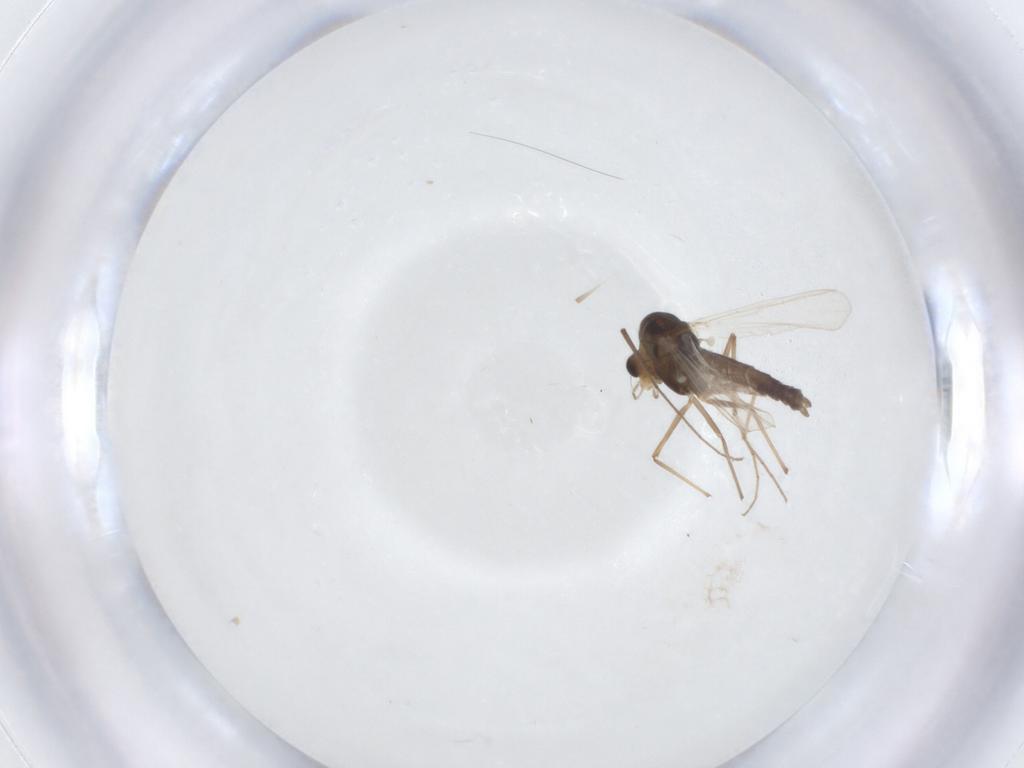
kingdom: Animalia
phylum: Arthropoda
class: Insecta
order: Diptera
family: Chironomidae
